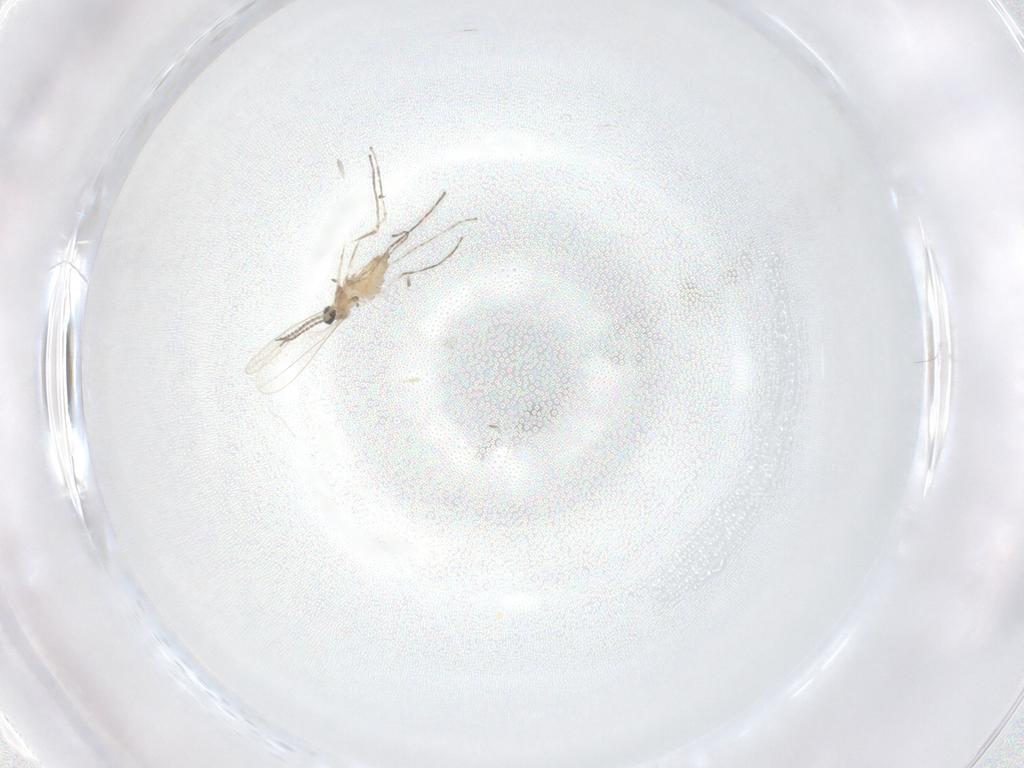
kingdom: Animalia
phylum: Arthropoda
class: Insecta
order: Diptera
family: Cecidomyiidae
